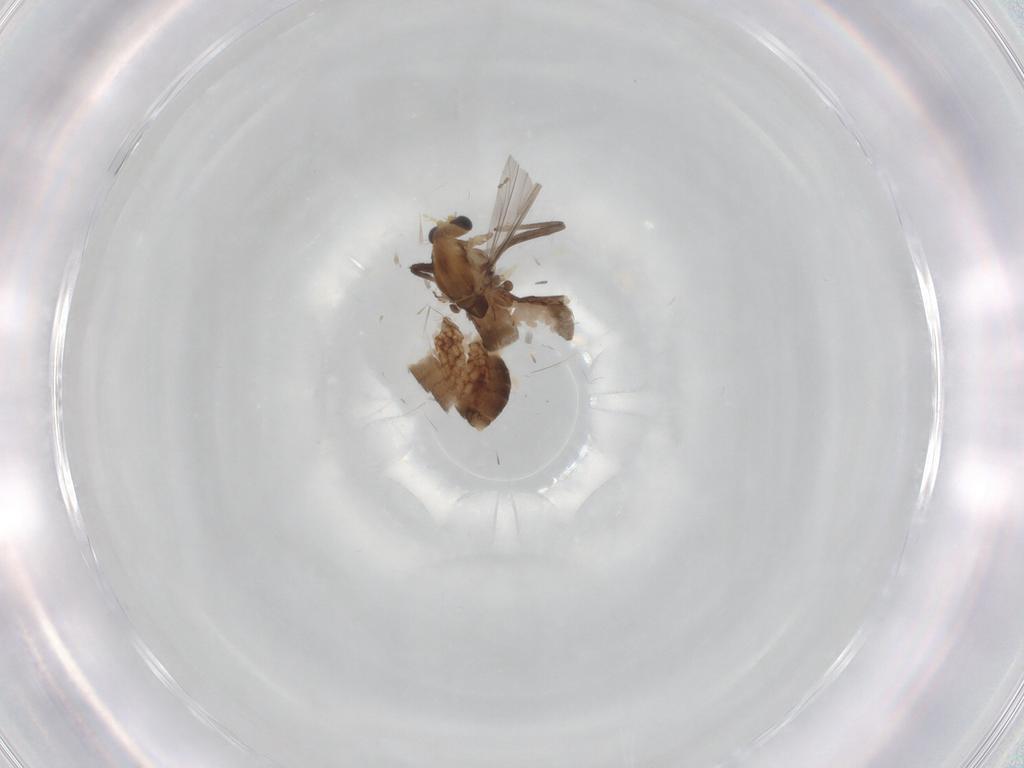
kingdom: Animalia
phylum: Arthropoda
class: Insecta
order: Diptera
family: Chironomidae
